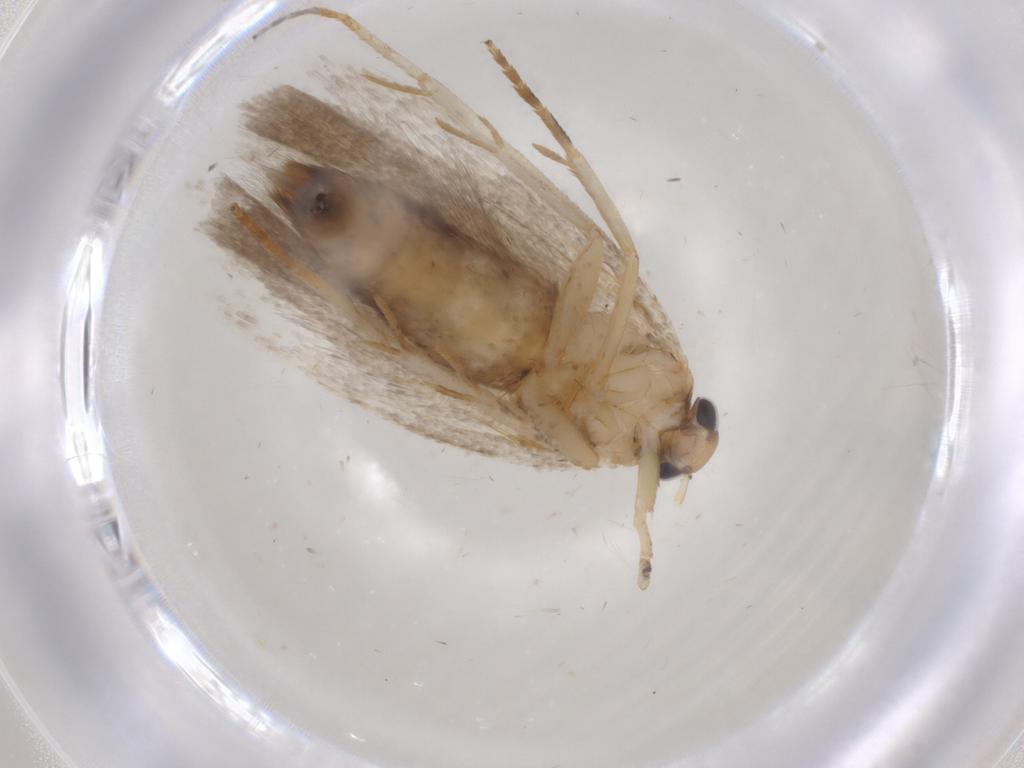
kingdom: Animalia
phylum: Arthropoda
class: Insecta
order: Lepidoptera
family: Gelechiidae
